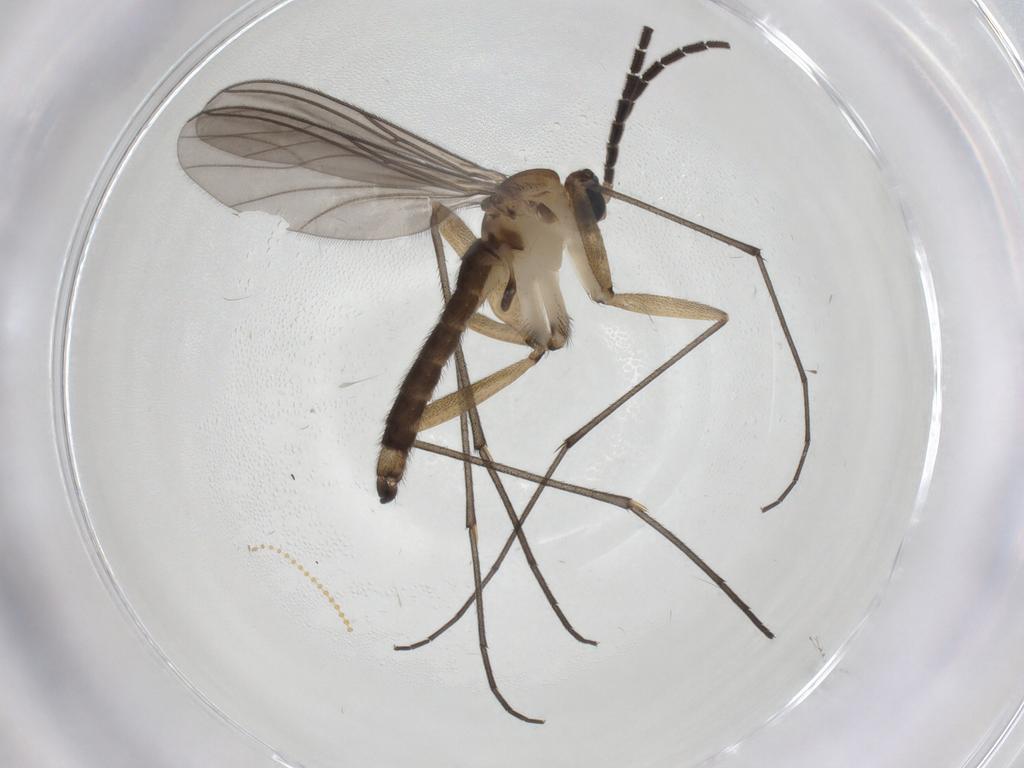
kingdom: Animalia
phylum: Arthropoda
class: Insecta
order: Diptera
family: Sciaridae
